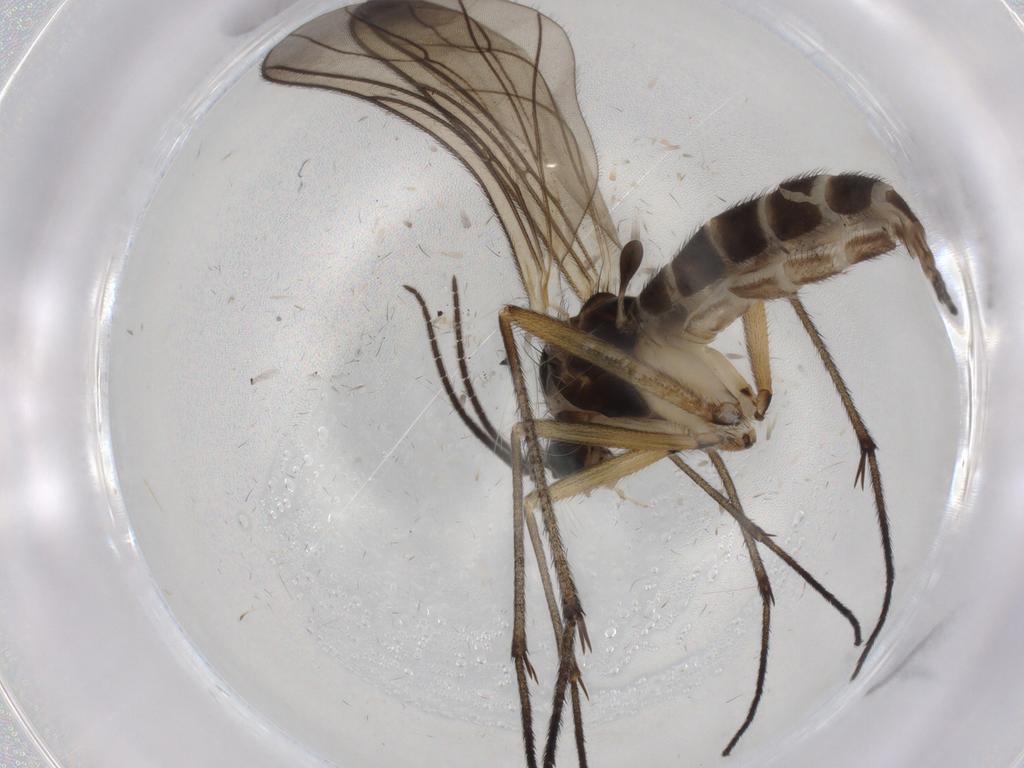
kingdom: Animalia
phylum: Arthropoda
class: Insecta
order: Diptera
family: Sciaridae
